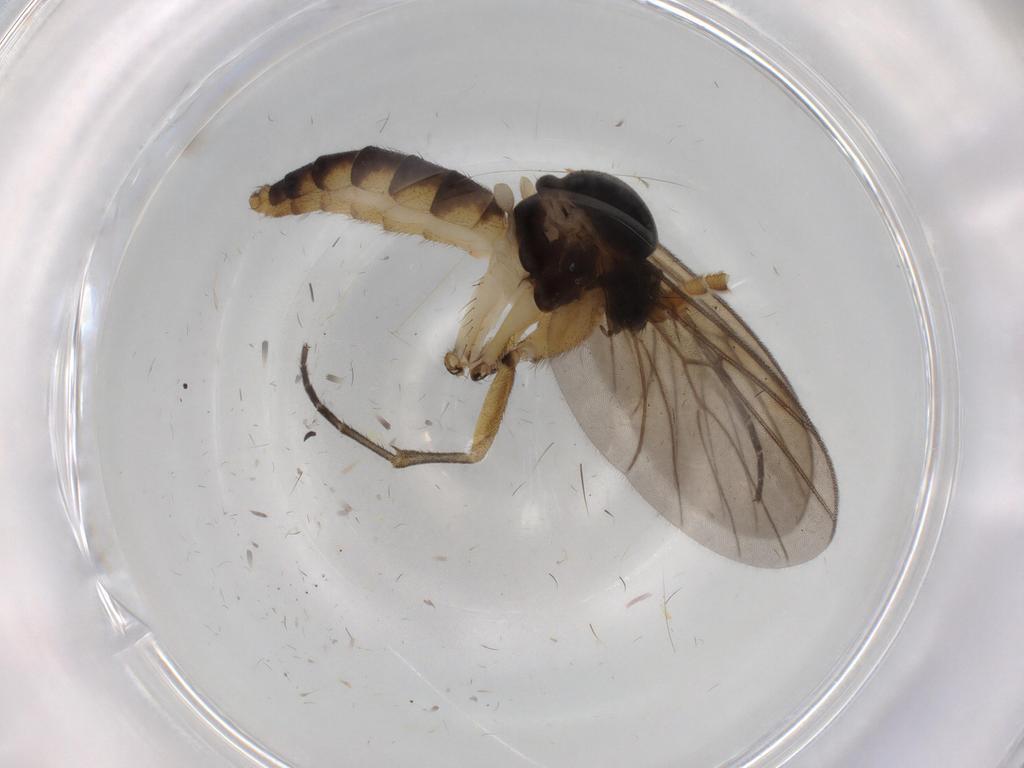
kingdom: Animalia
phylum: Arthropoda
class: Insecta
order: Diptera
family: Mycetophilidae
